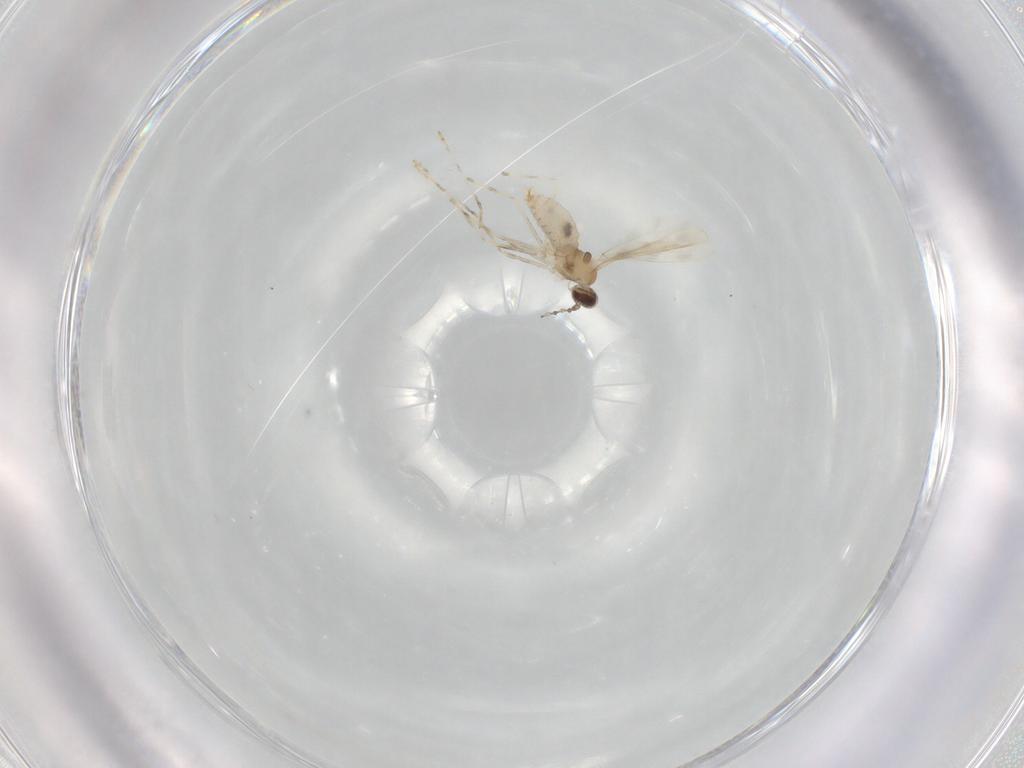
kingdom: Animalia
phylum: Arthropoda
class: Insecta
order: Diptera
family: Cecidomyiidae
